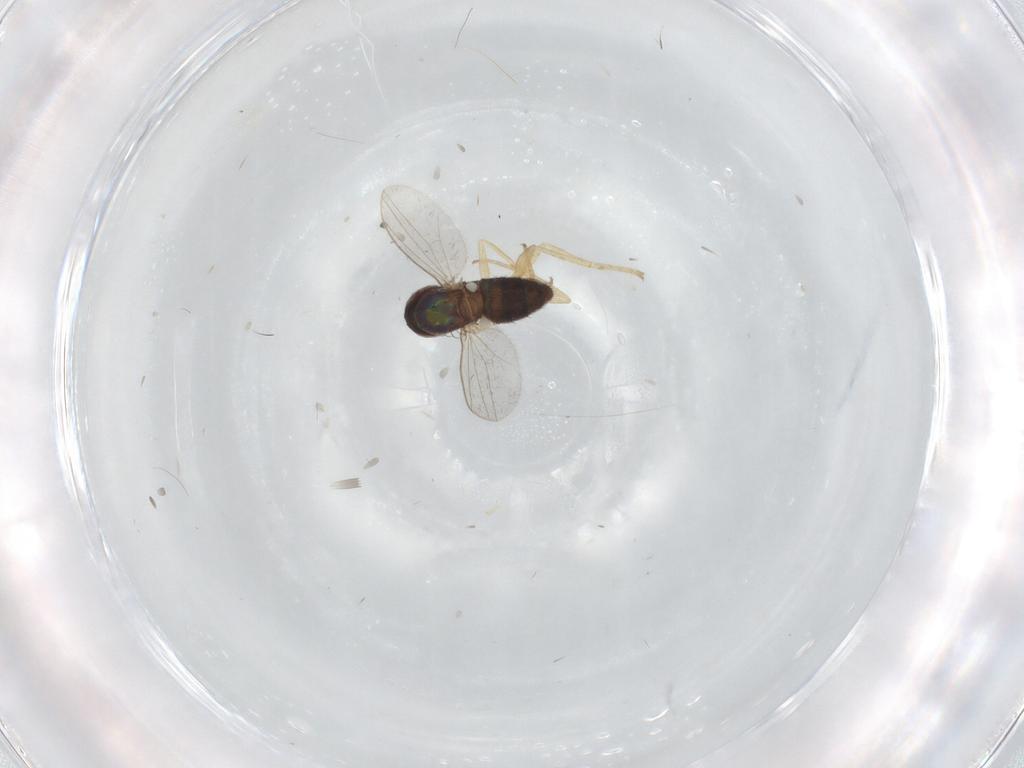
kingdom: Animalia
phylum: Arthropoda
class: Insecta
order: Diptera
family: Dolichopodidae
